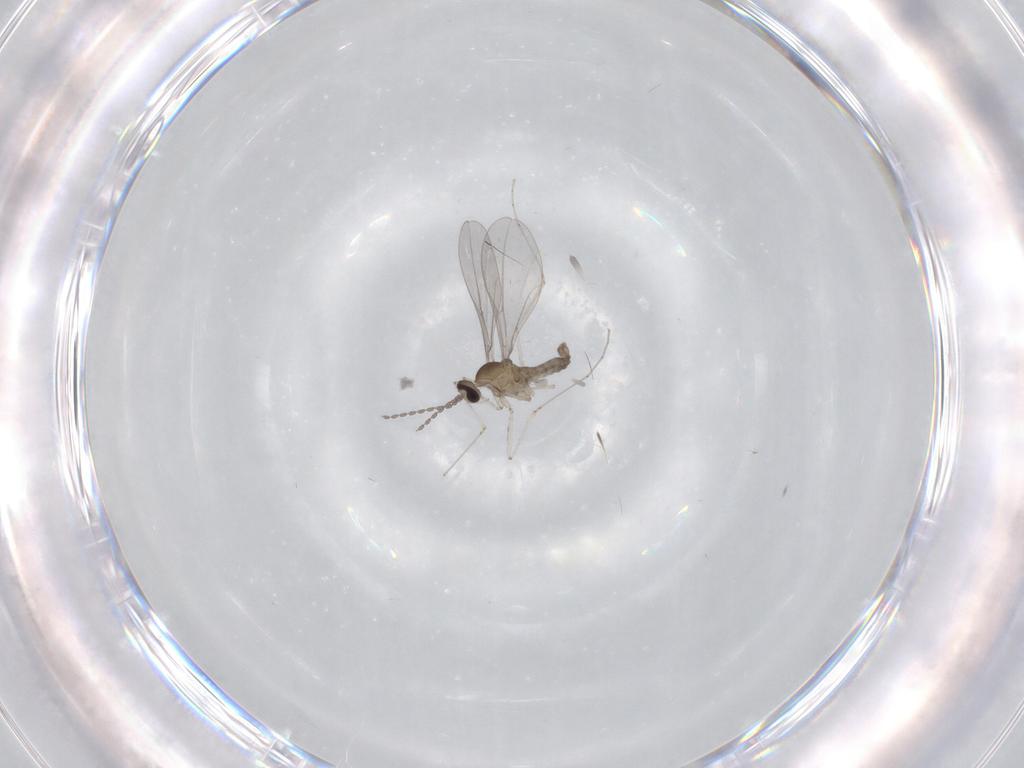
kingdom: Animalia
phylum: Arthropoda
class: Insecta
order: Diptera
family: Cecidomyiidae
